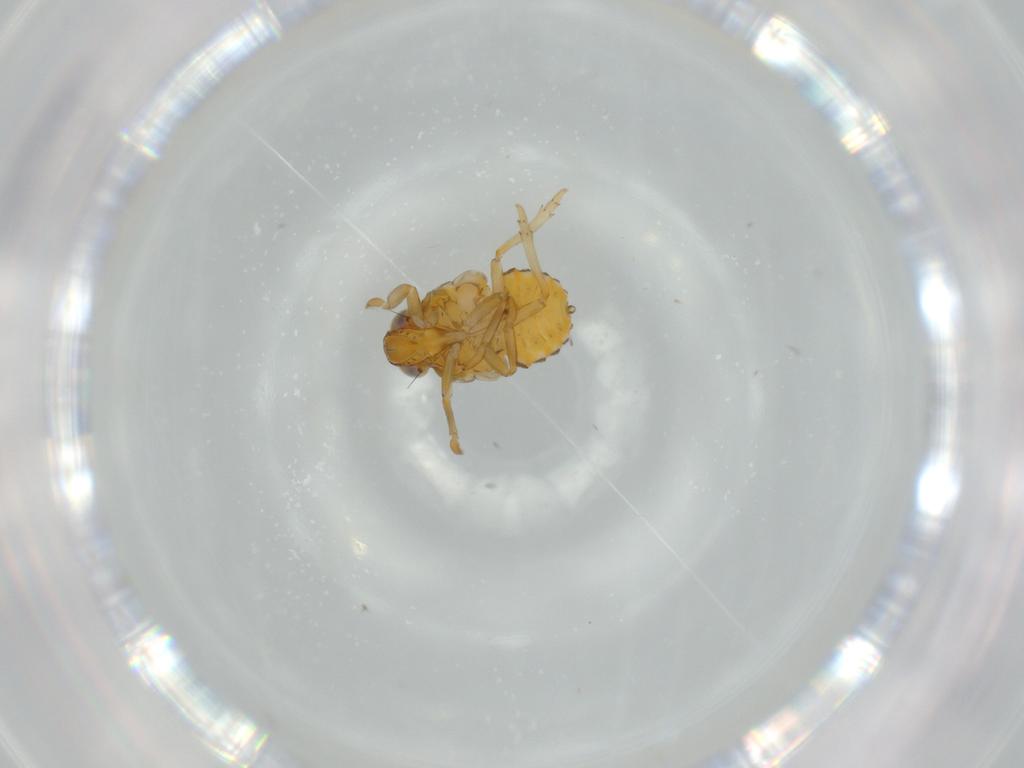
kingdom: Animalia
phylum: Arthropoda
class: Insecta
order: Hemiptera
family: Issidae
